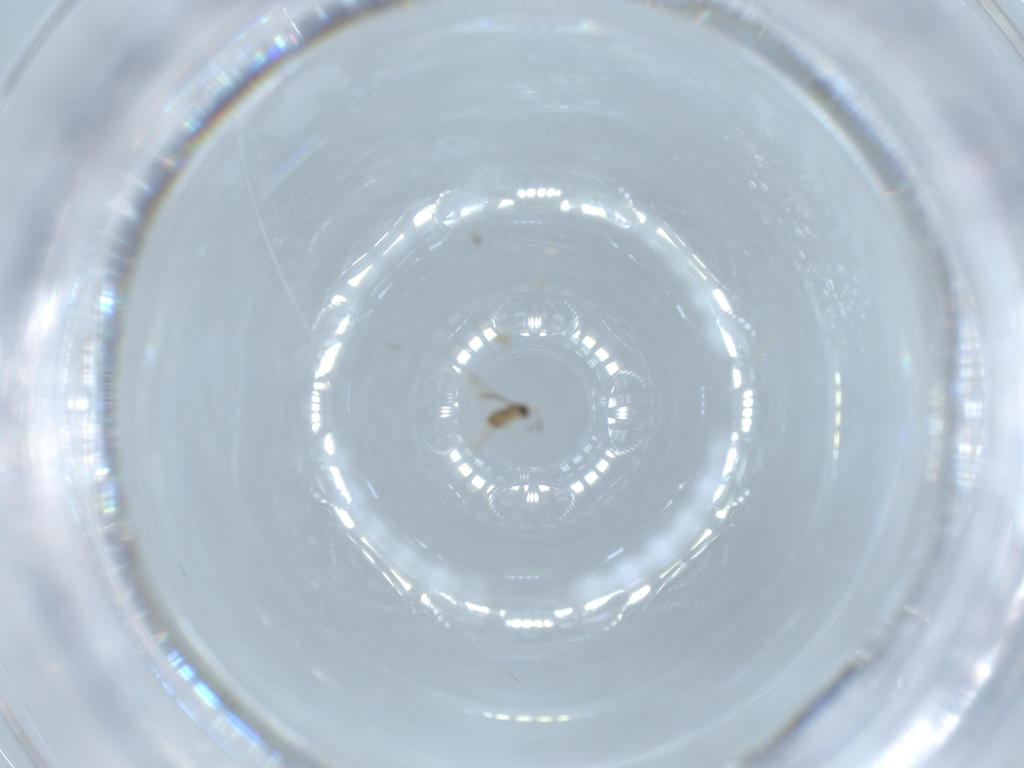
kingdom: Animalia
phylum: Arthropoda
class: Insecta
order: Hymenoptera
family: Mymaridae
